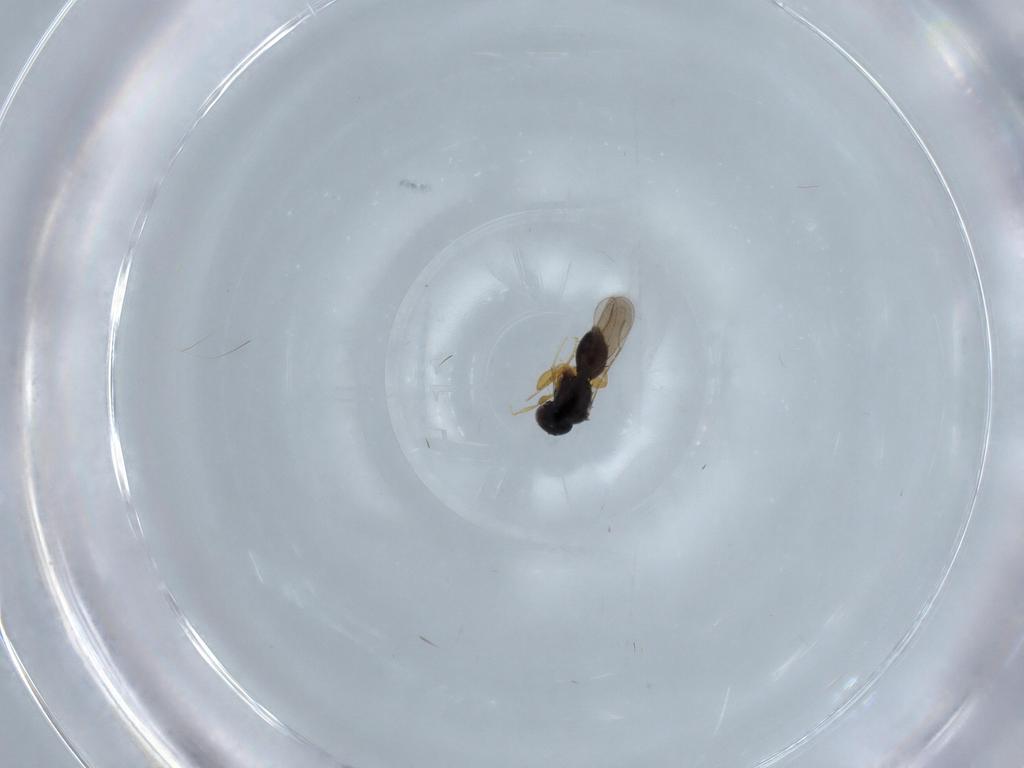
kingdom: Animalia
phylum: Arthropoda
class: Insecta
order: Hymenoptera
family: Vespidae
